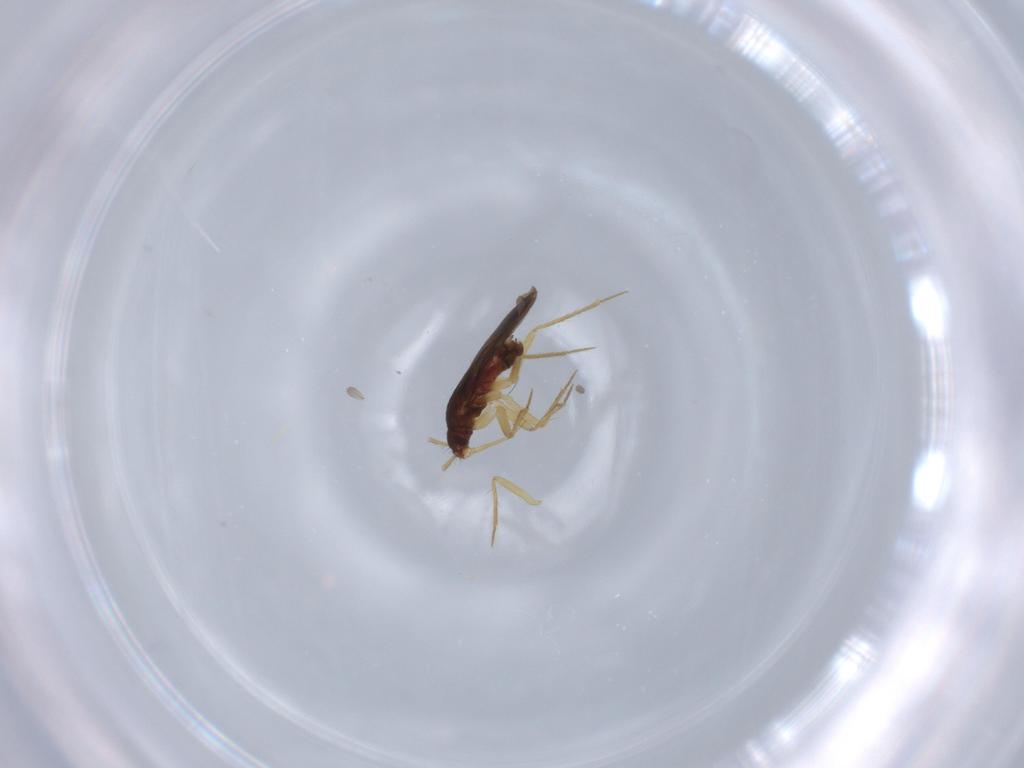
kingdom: Animalia
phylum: Arthropoda
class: Insecta
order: Hemiptera
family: Ceratocombidae
